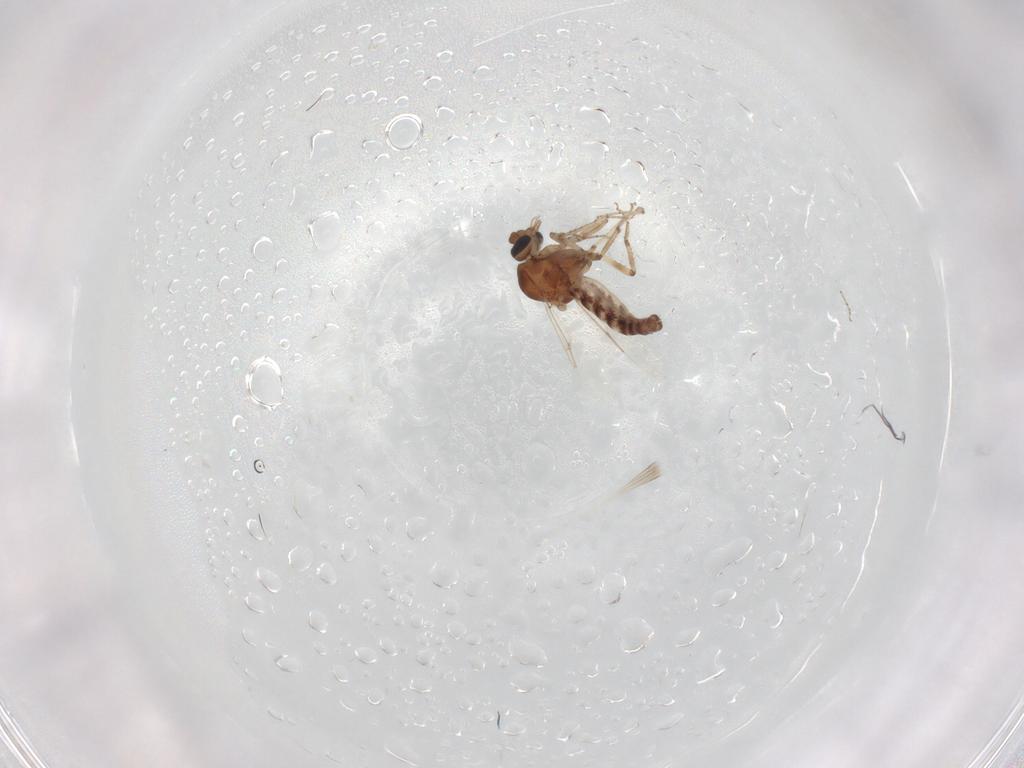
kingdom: Animalia
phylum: Arthropoda
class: Insecta
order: Diptera
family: Ceratopogonidae
